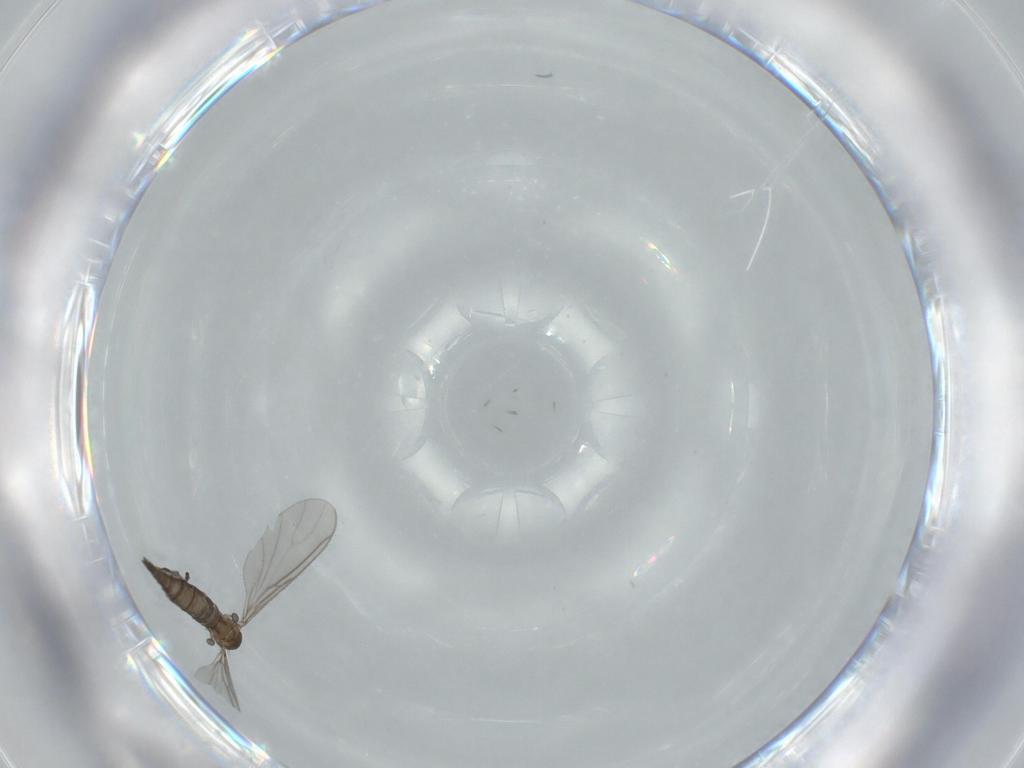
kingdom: Animalia
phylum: Arthropoda
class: Insecta
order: Diptera
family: Sciaridae
